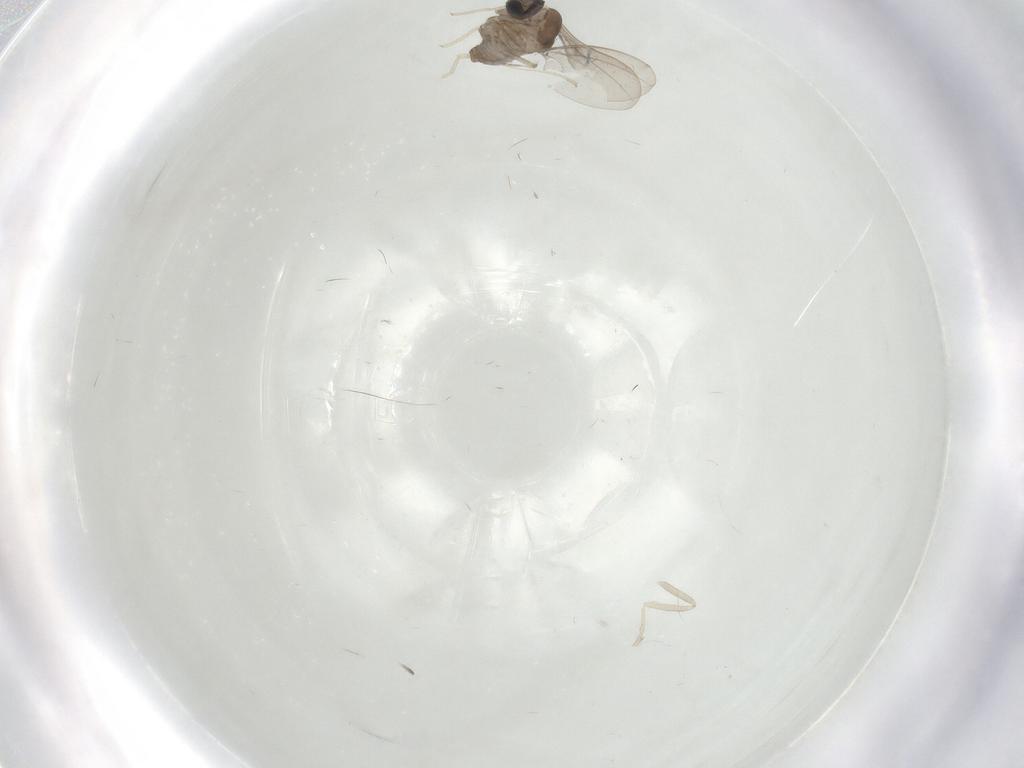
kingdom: Animalia
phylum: Arthropoda
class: Insecta
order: Diptera
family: Cecidomyiidae
